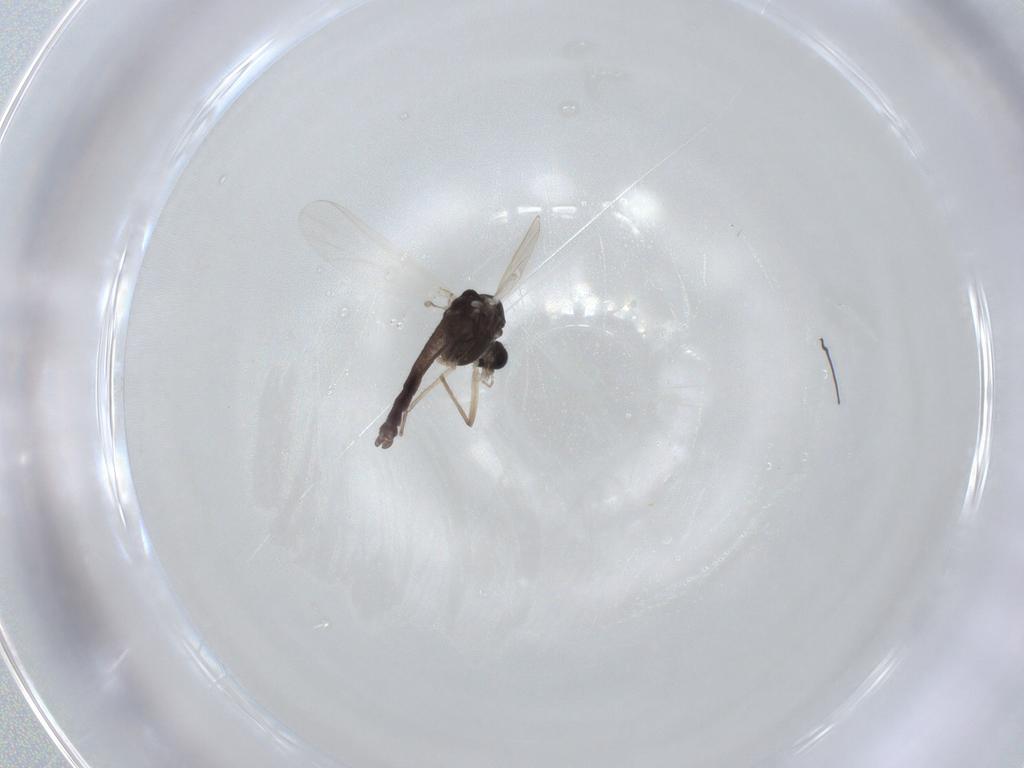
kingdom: Animalia
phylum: Arthropoda
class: Insecta
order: Diptera
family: Chironomidae
